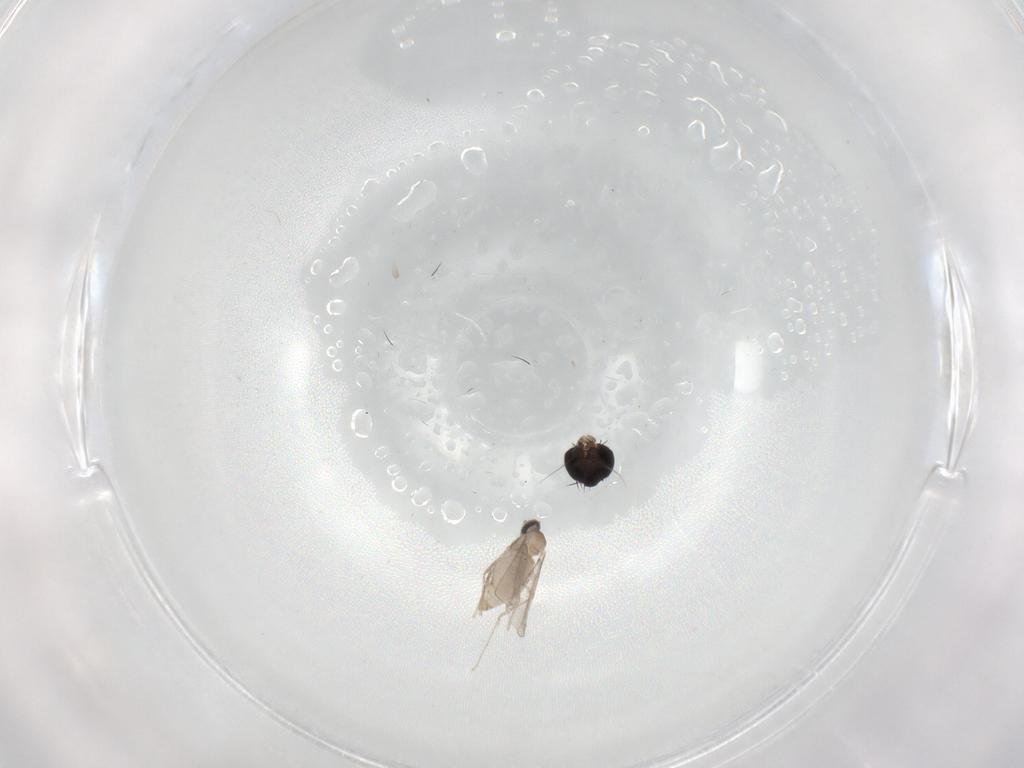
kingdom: Animalia
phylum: Arthropoda
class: Insecta
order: Diptera
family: Phoridae
